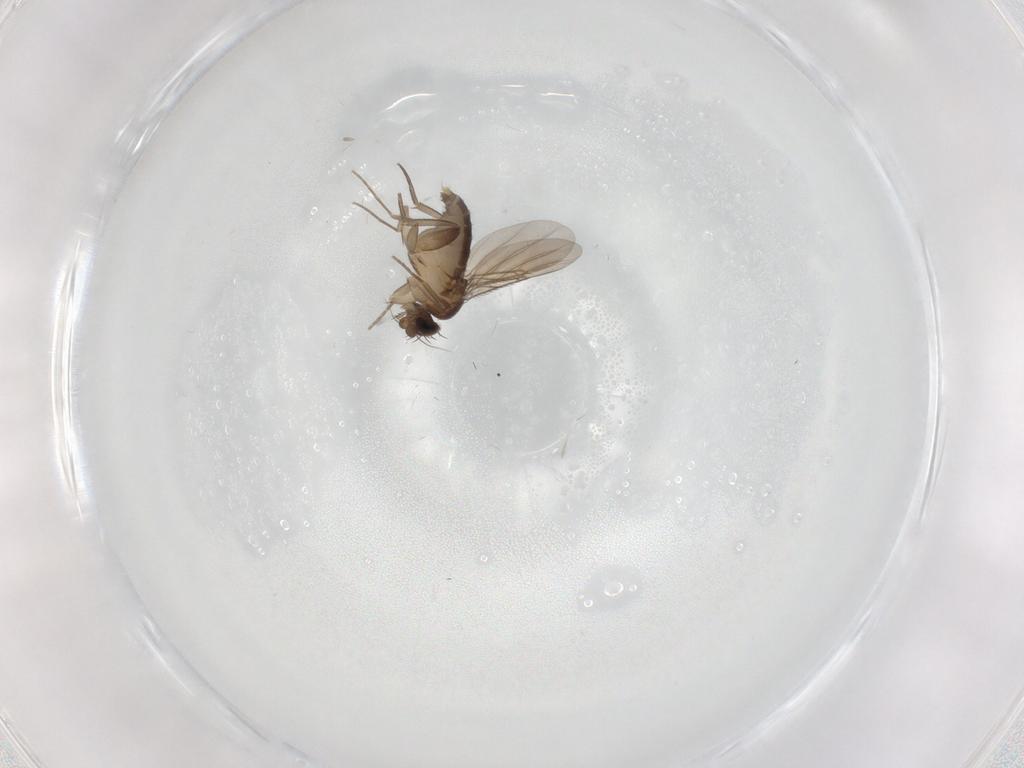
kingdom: Animalia
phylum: Arthropoda
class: Insecta
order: Diptera
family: Phoridae
